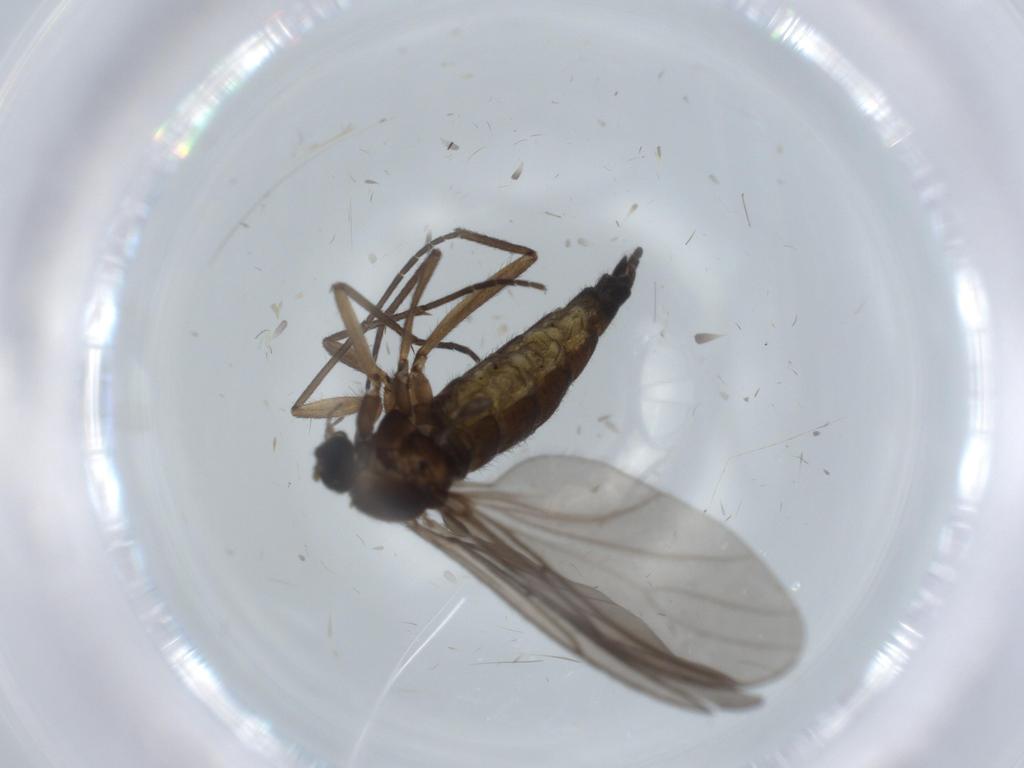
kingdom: Animalia
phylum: Arthropoda
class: Insecta
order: Diptera
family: Sciaridae
